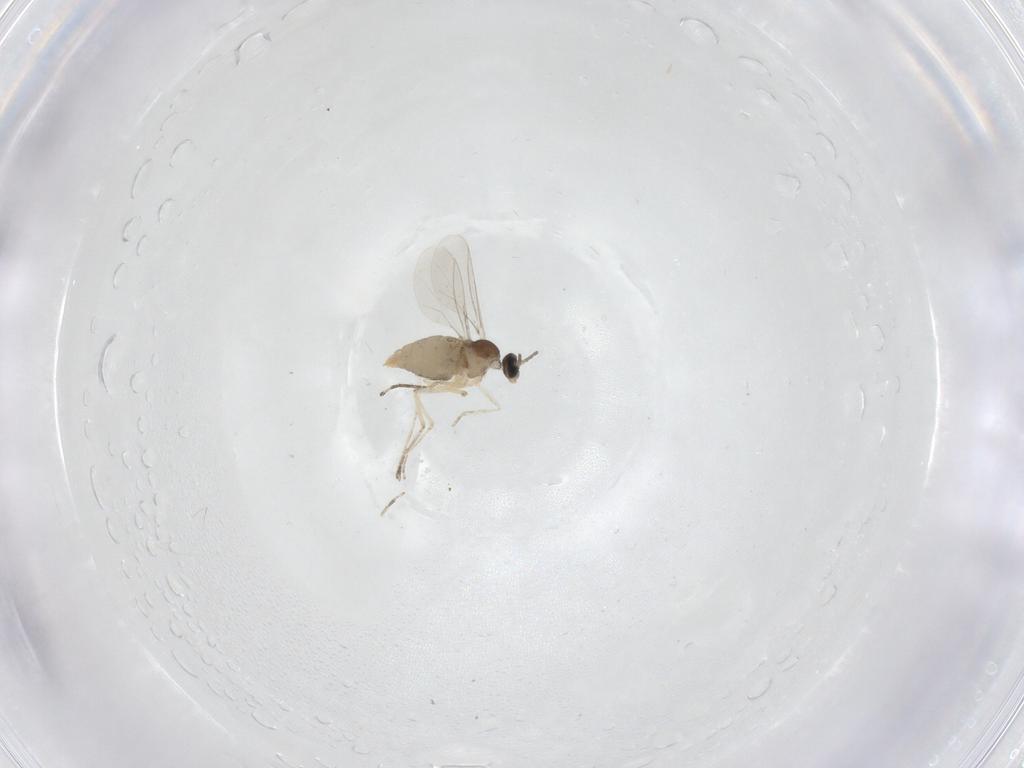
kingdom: Animalia
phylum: Arthropoda
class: Insecta
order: Diptera
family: Cecidomyiidae
